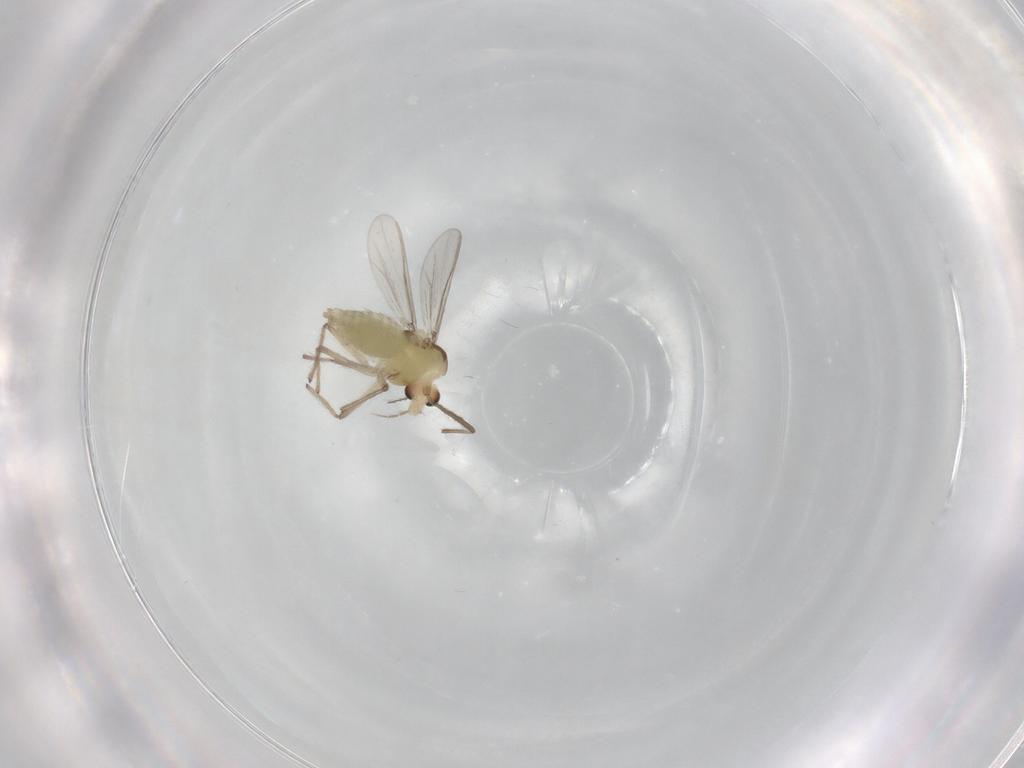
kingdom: Animalia
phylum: Arthropoda
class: Insecta
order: Diptera
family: Chironomidae
